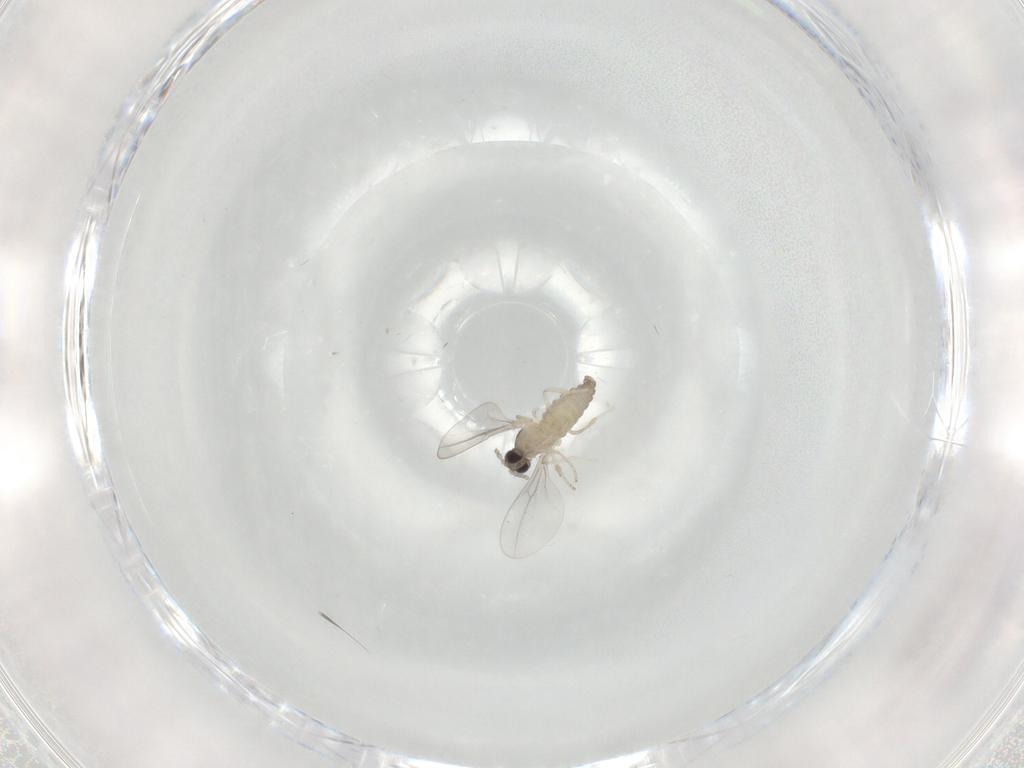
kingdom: Animalia
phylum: Arthropoda
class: Insecta
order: Diptera
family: Cecidomyiidae
